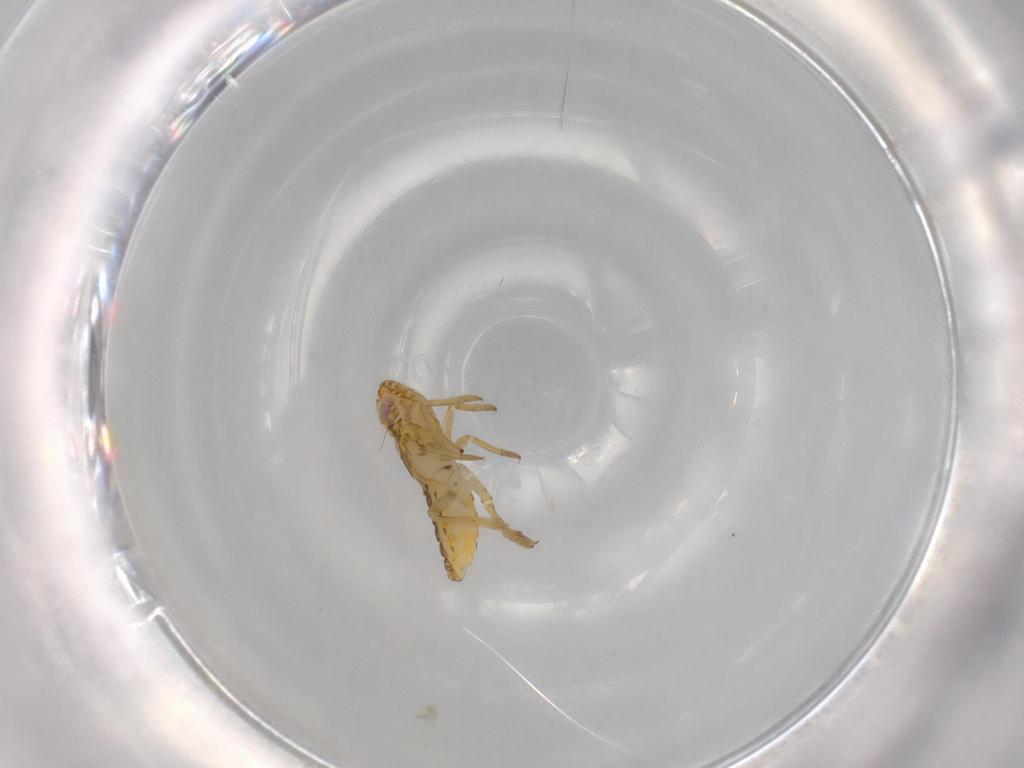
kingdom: Animalia
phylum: Arthropoda
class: Insecta
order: Hemiptera
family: Delphacidae
